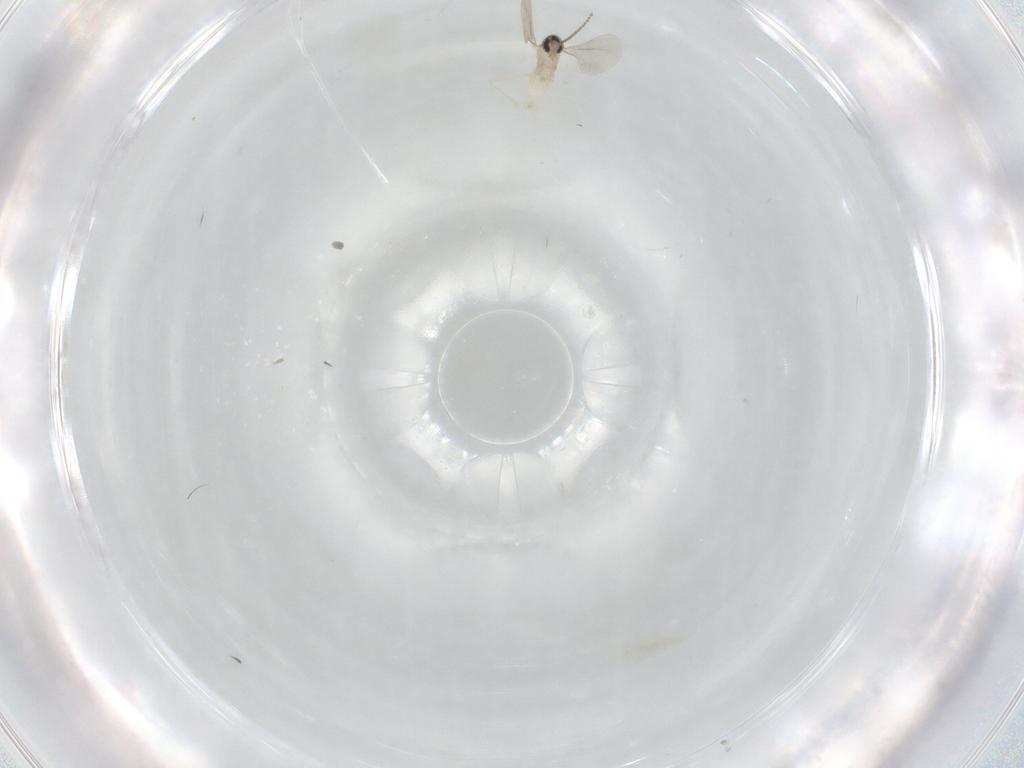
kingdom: Animalia
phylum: Arthropoda
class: Insecta
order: Diptera
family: Cecidomyiidae
